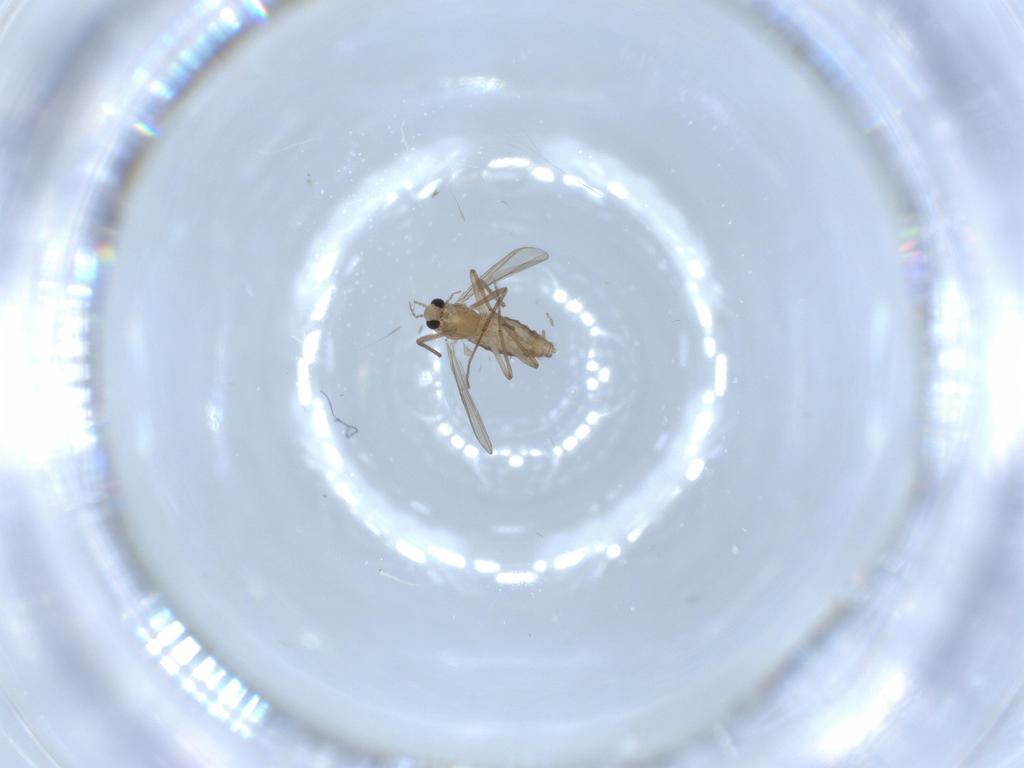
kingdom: Animalia
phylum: Arthropoda
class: Insecta
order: Diptera
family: Chironomidae
